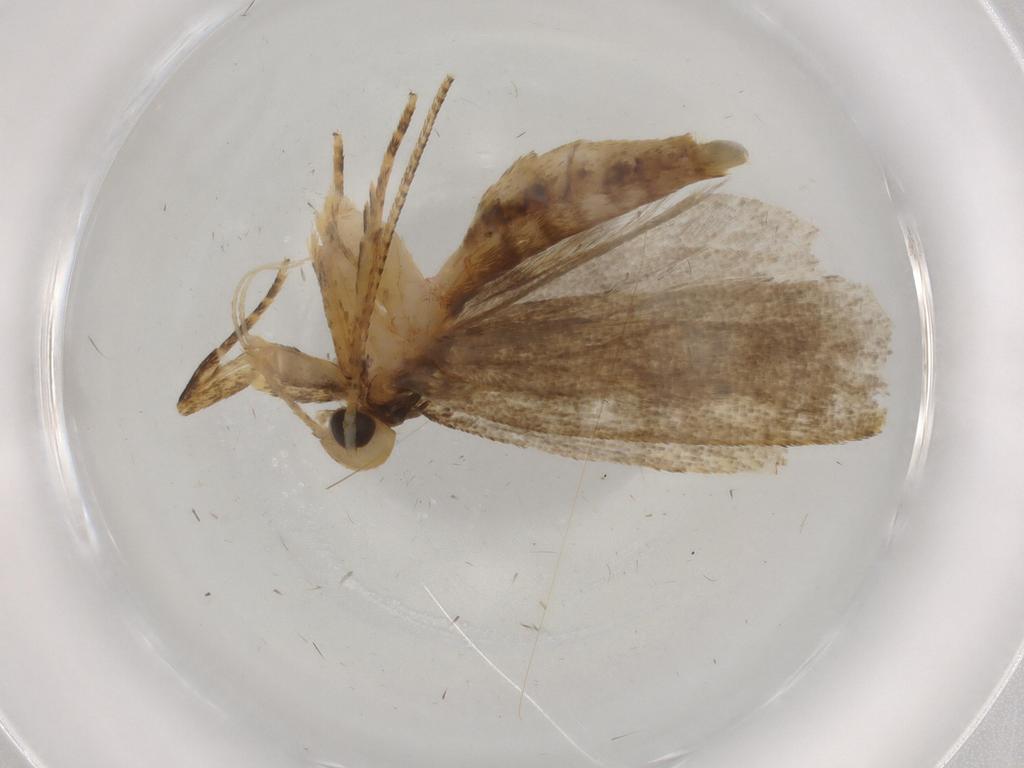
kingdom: Animalia
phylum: Arthropoda
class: Insecta
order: Lepidoptera
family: Autostichidae
